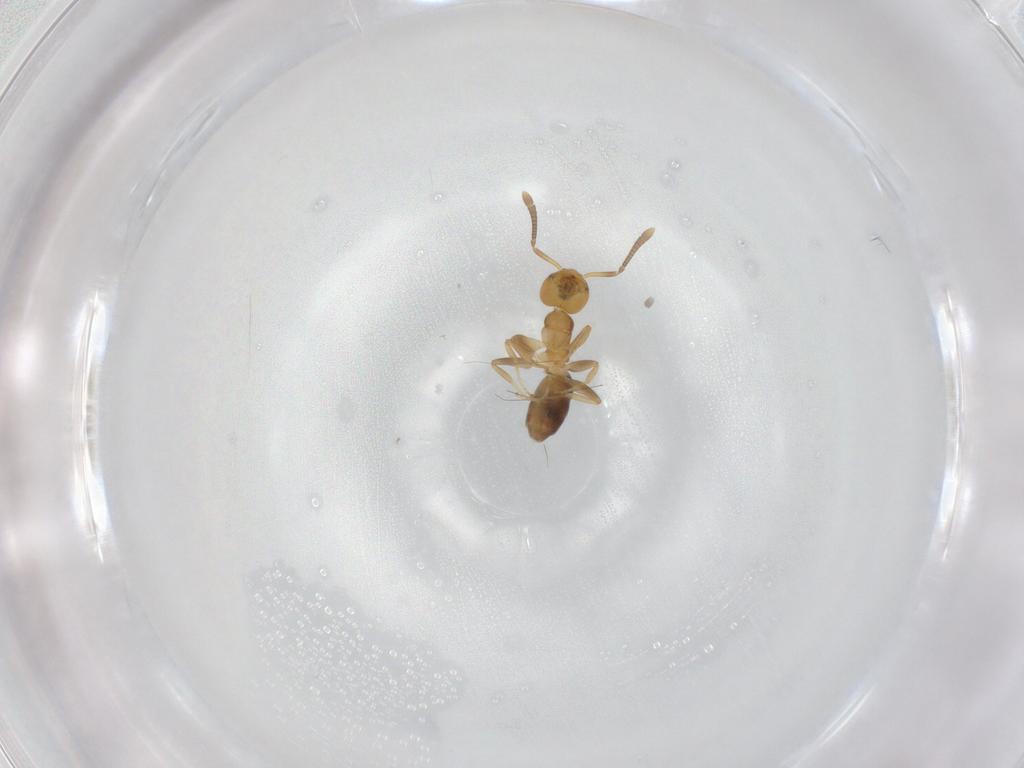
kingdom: Animalia
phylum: Arthropoda
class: Insecta
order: Hymenoptera
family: Formicidae
